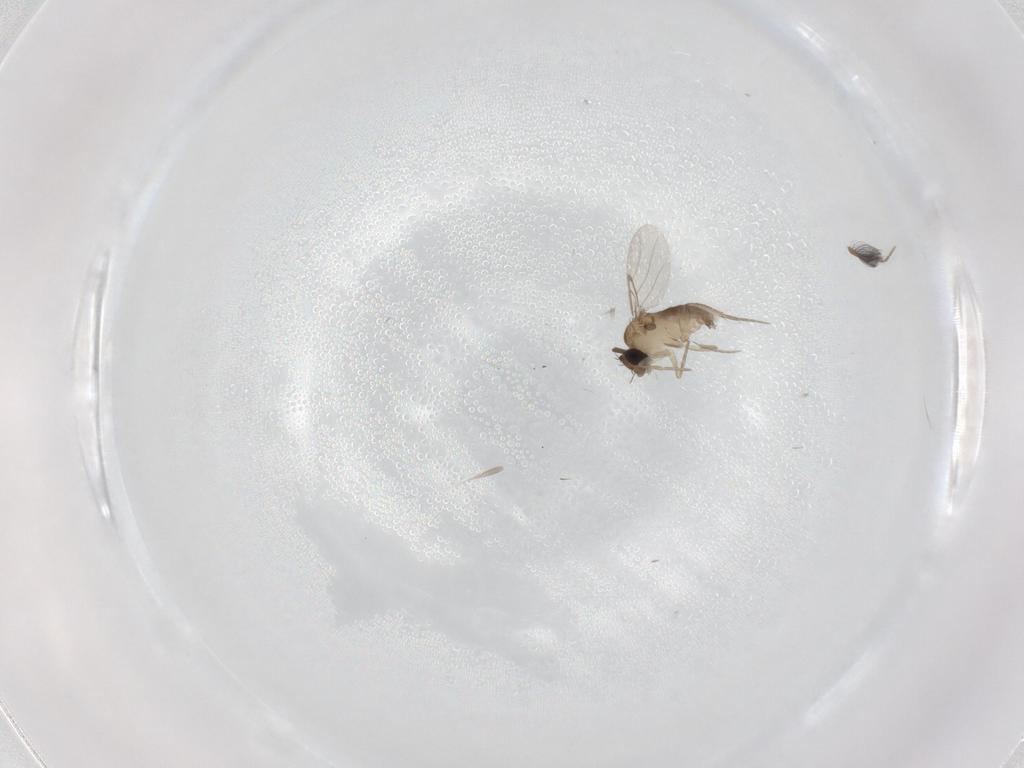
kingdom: Animalia
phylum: Arthropoda
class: Insecta
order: Diptera
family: Phoridae
